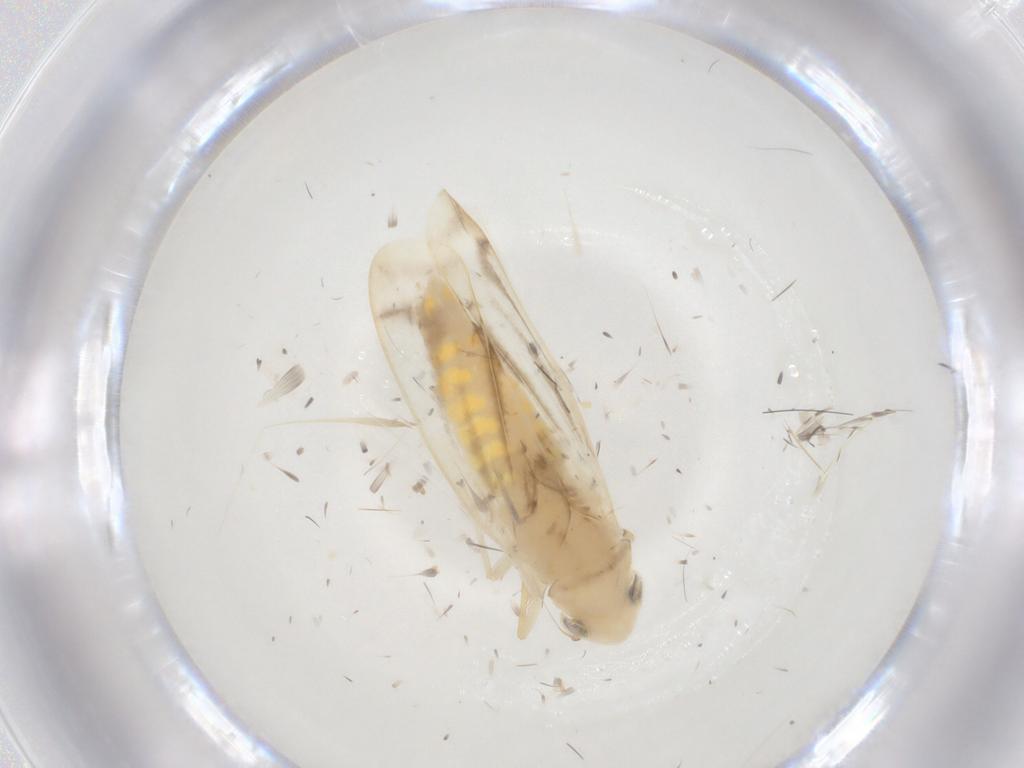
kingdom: Animalia
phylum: Arthropoda
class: Insecta
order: Hemiptera
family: Cicadellidae
